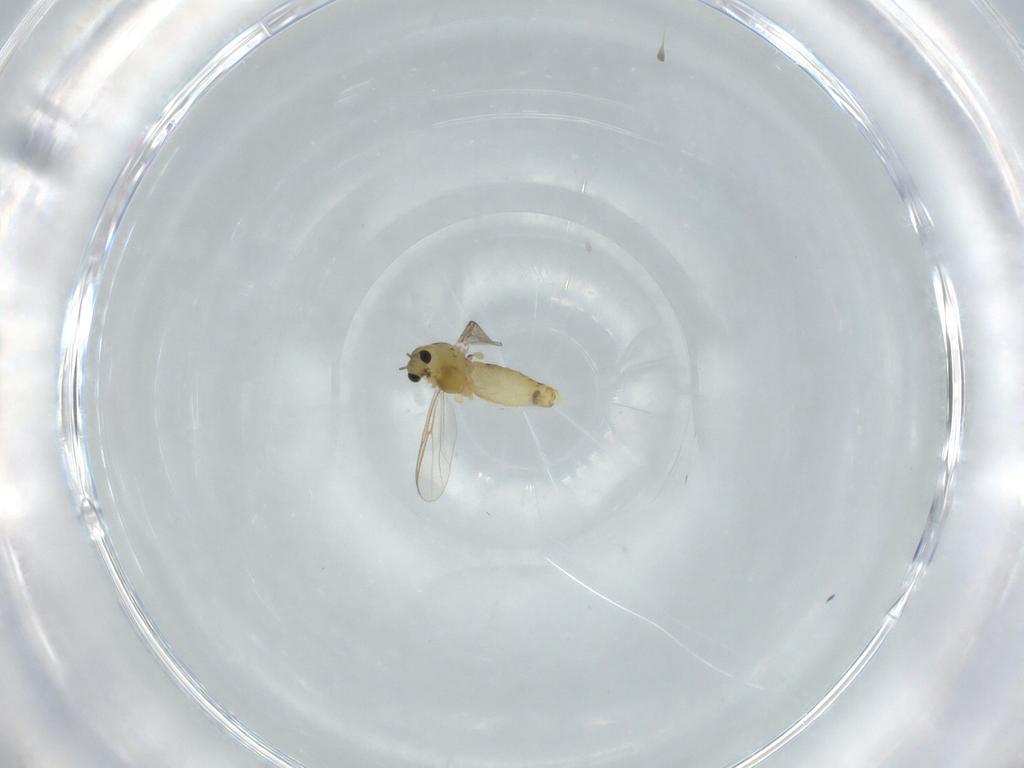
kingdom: Animalia
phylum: Arthropoda
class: Insecta
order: Diptera
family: Chironomidae
